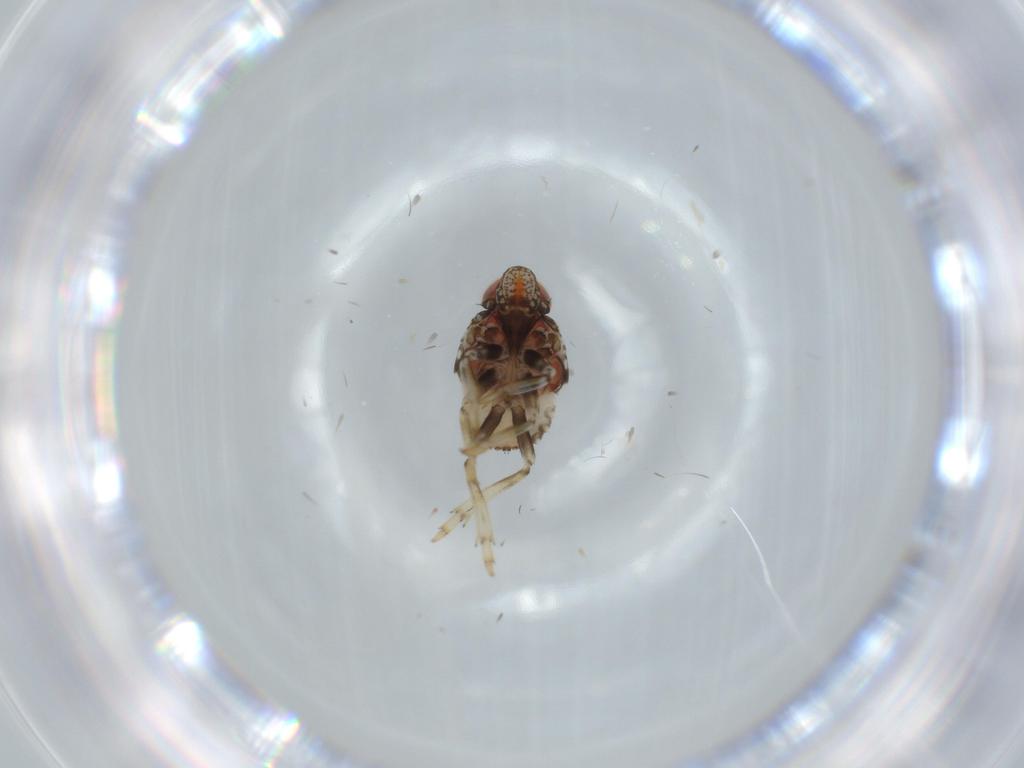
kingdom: Animalia
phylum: Arthropoda
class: Insecta
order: Hemiptera
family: Issidae
